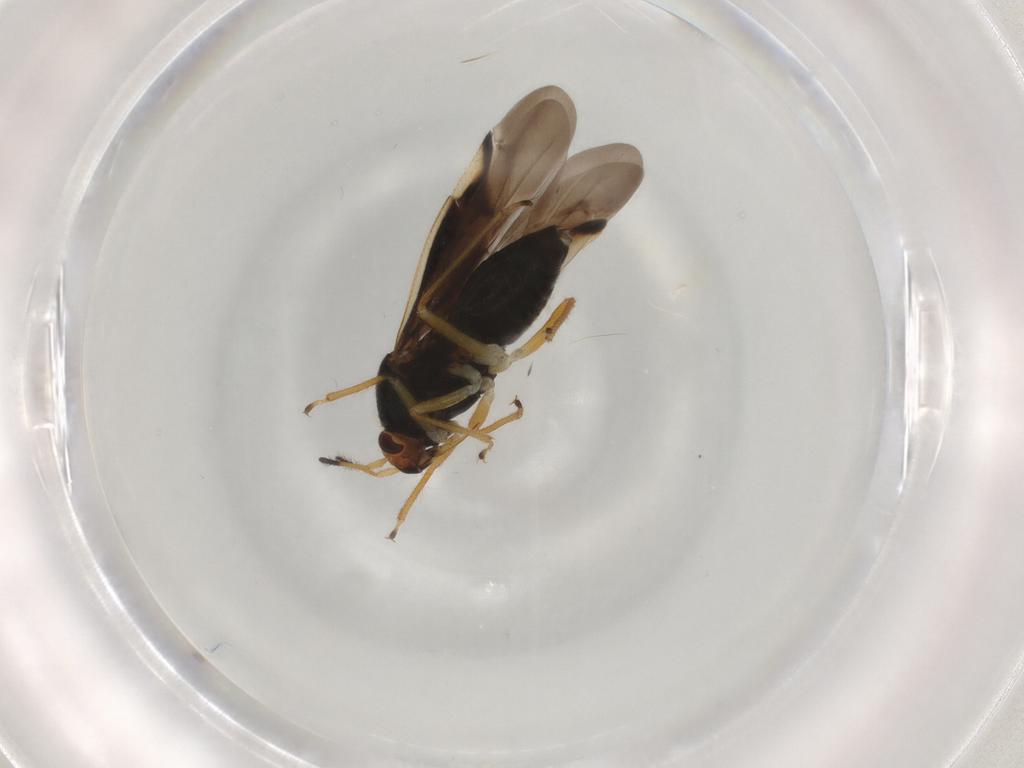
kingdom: Animalia
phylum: Arthropoda
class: Insecta
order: Hemiptera
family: Miridae
